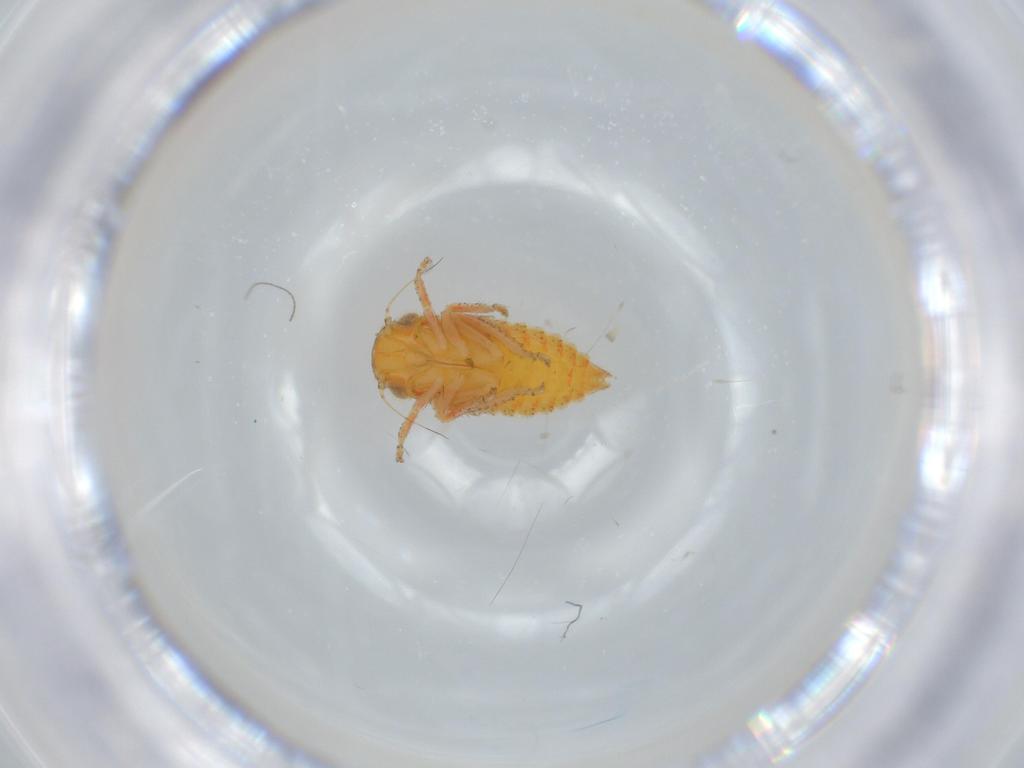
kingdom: Animalia
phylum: Arthropoda
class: Insecta
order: Hemiptera
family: Cicadellidae
